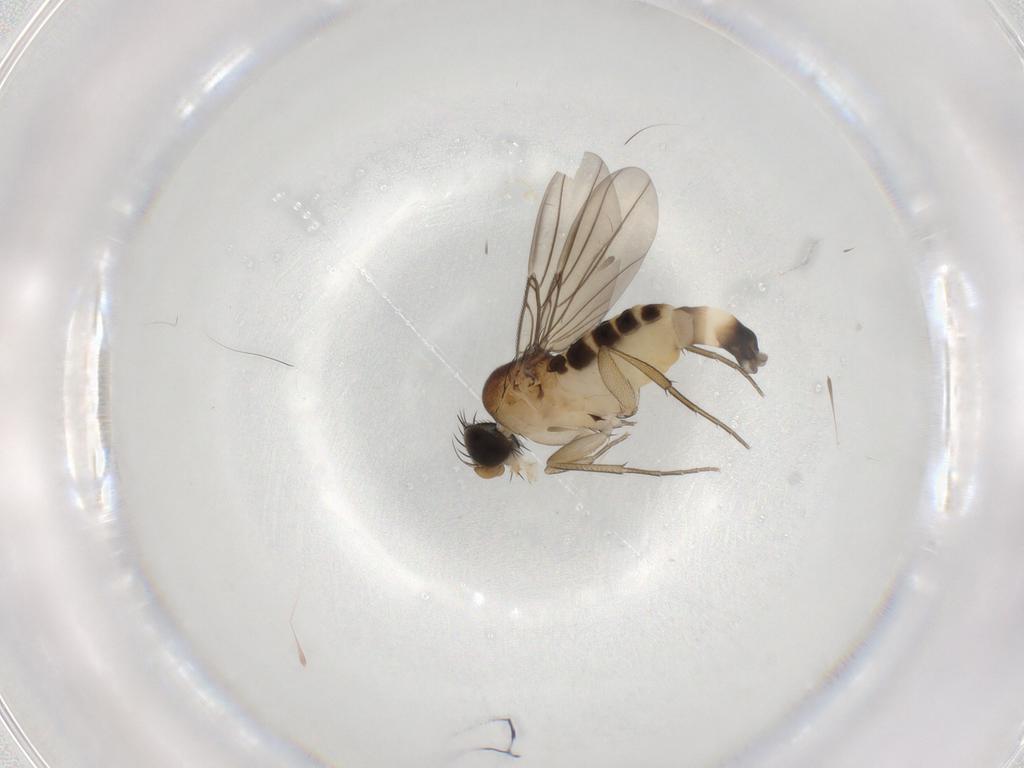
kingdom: Animalia
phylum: Arthropoda
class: Insecta
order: Diptera
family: Phoridae
